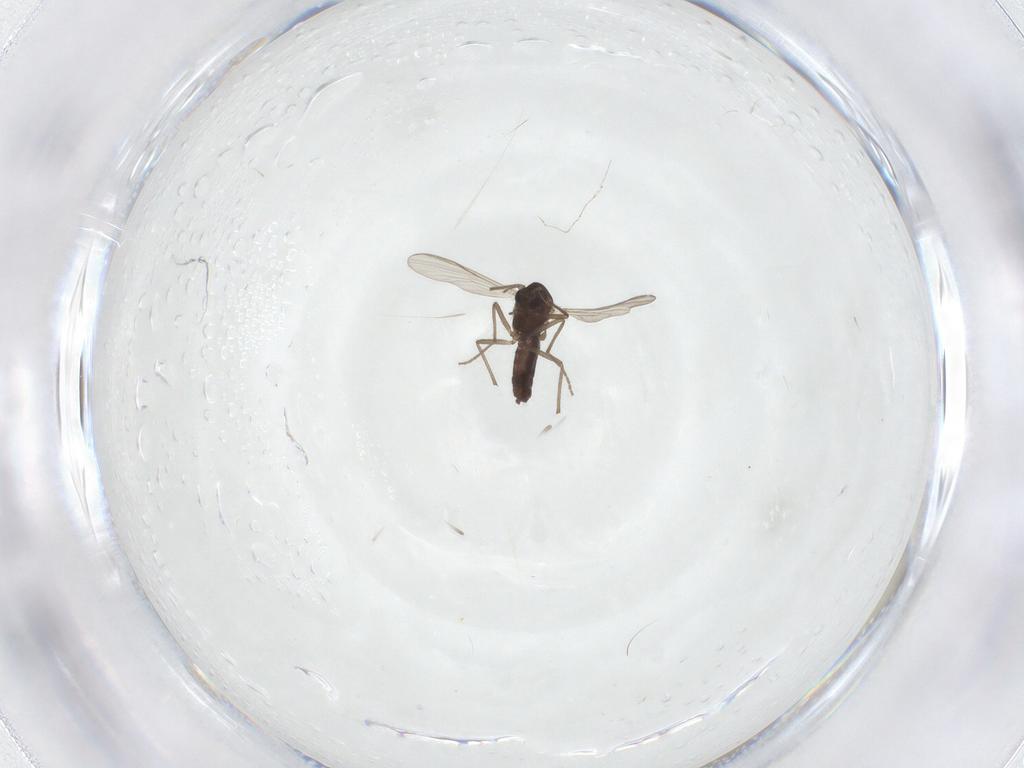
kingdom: Animalia
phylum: Arthropoda
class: Insecta
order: Diptera
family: Chironomidae
